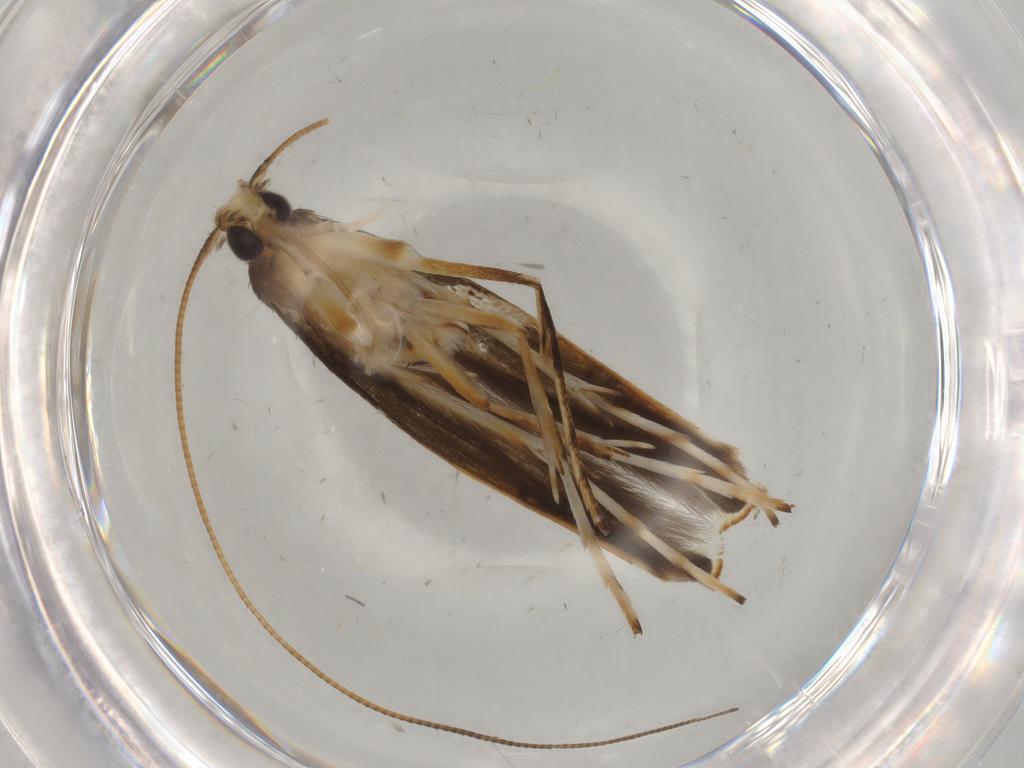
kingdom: Animalia
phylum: Arthropoda
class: Insecta
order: Lepidoptera
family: Gracillariidae
